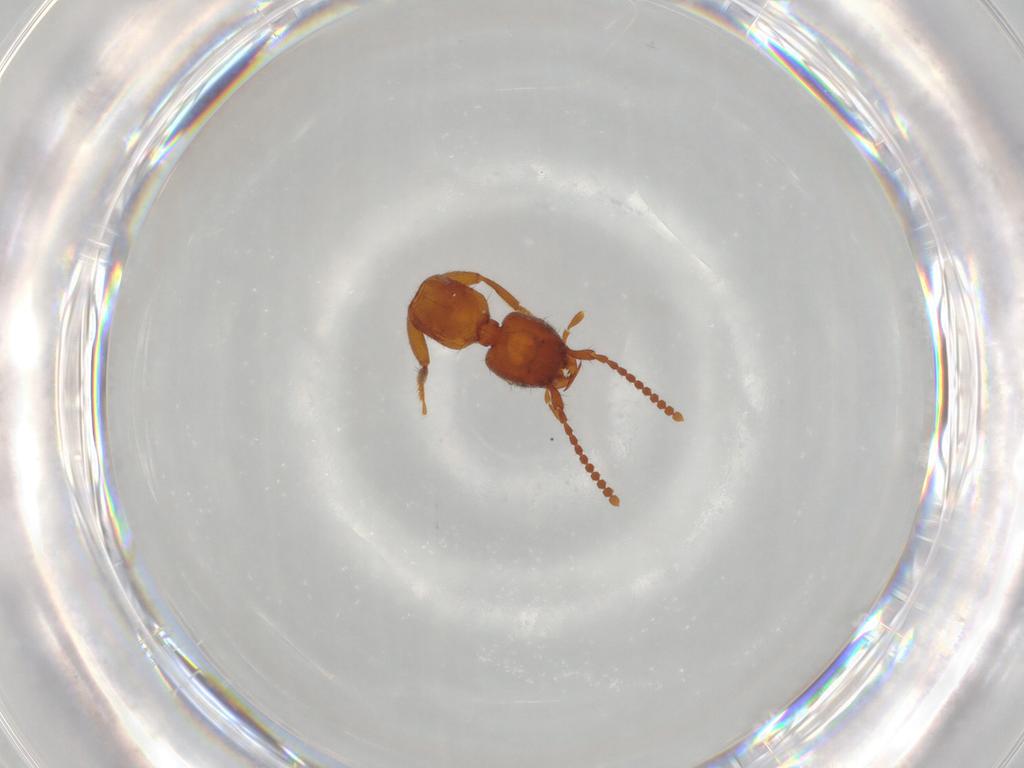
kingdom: Animalia
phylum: Arthropoda
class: Insecta
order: Coleoptera
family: Staphylinidae
